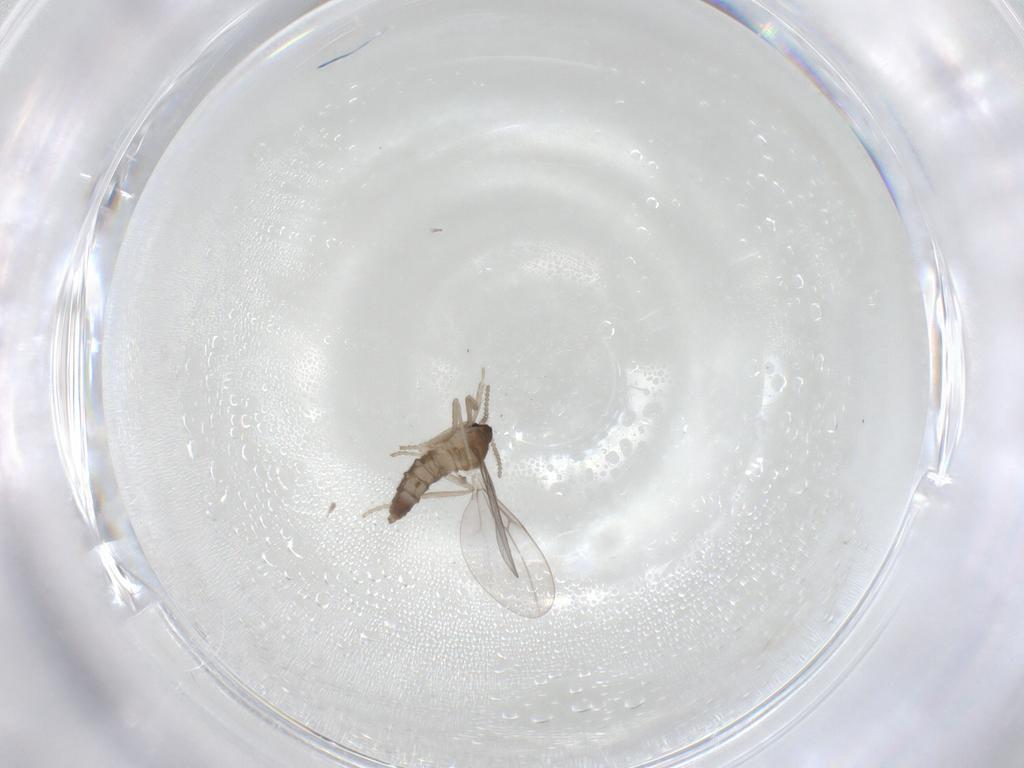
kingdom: Animalia
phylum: Arthropoda
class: Insecta
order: Diptera
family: Cecidomyiidae
